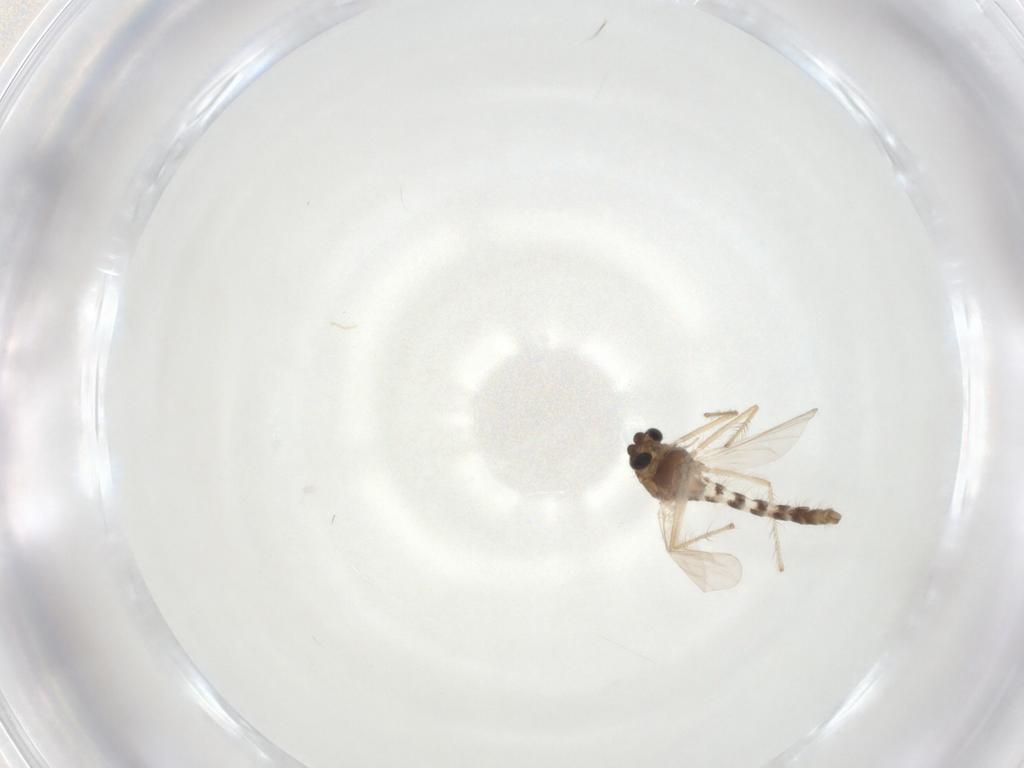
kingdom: Animalia
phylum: Arthropoda
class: Insecta
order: Diptera
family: Chironomidae
